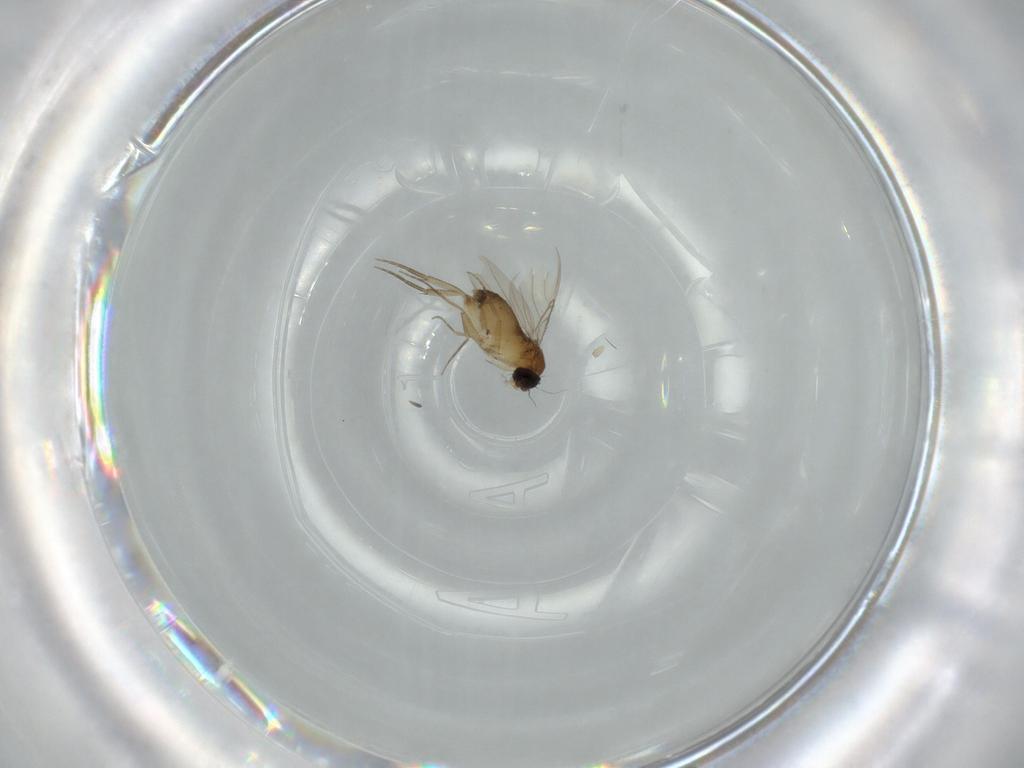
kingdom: Animalia
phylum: Arthropoda
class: Insecta
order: Diptera
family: Phoridae
